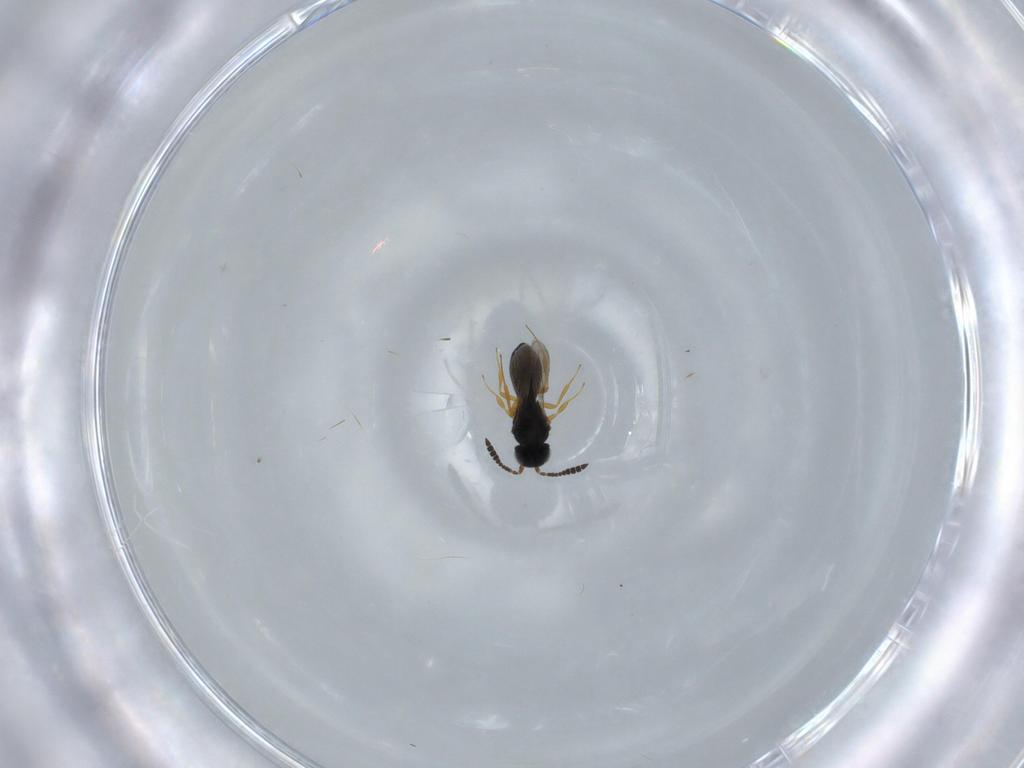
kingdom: Animalia
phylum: Arthropoda
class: Insecta
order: Hymenoptera
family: Scelionidae
